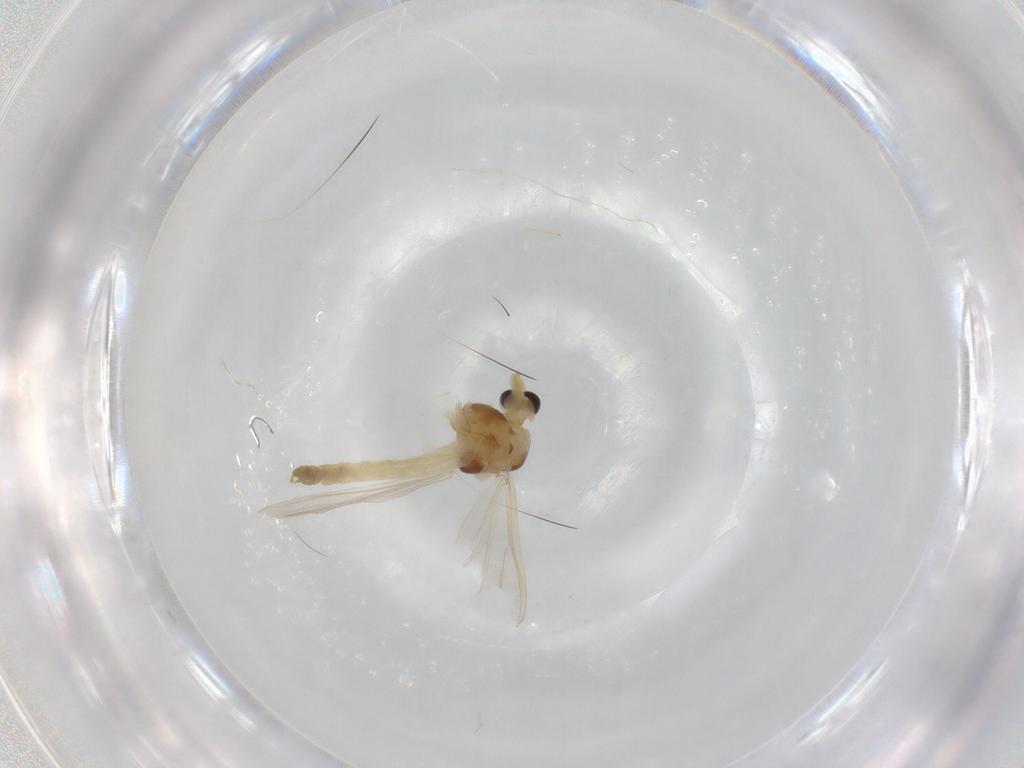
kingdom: Animalia
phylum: Arthropoda
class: Insecta
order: Diptera
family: Chironomidae
